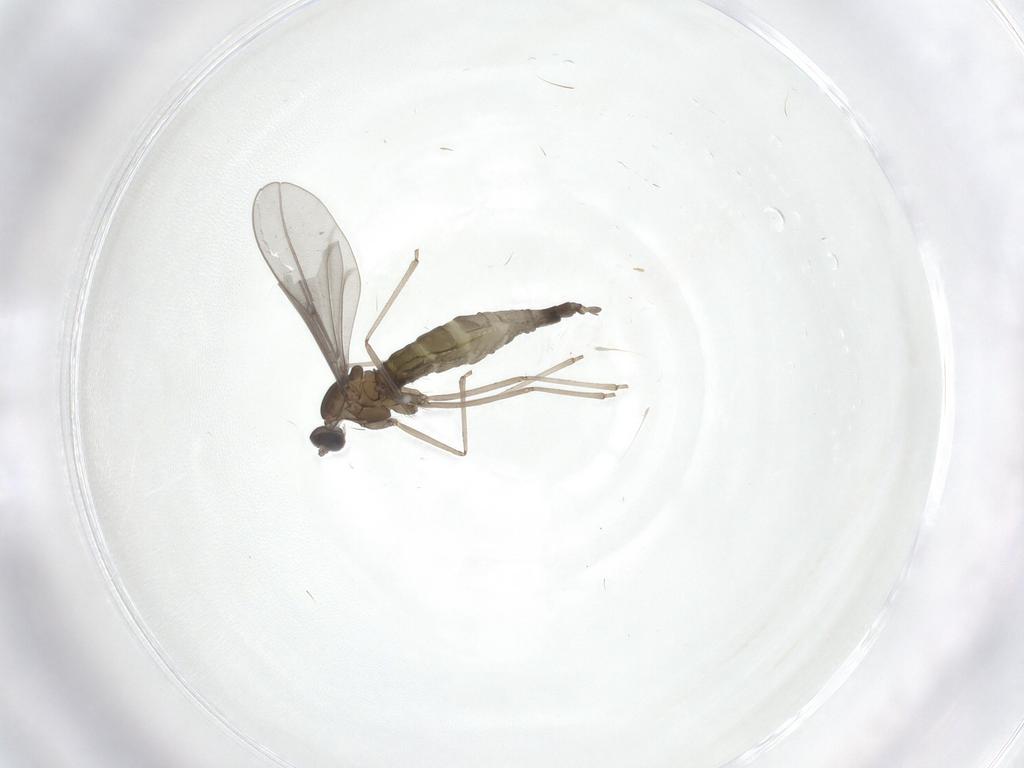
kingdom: Animalia
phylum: Arthropoda
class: Insecta
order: Diptera
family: Cecidomyiidae
